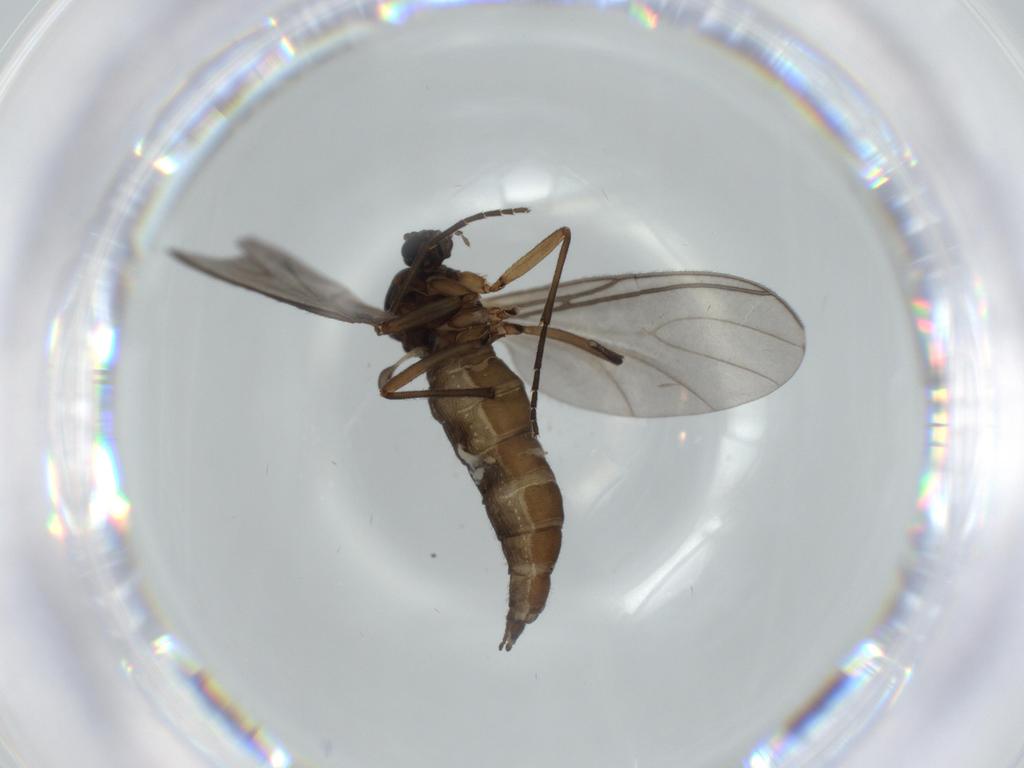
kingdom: Animalia
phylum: Arthropoda
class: Insecta
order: Diptera
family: Sciaridae
